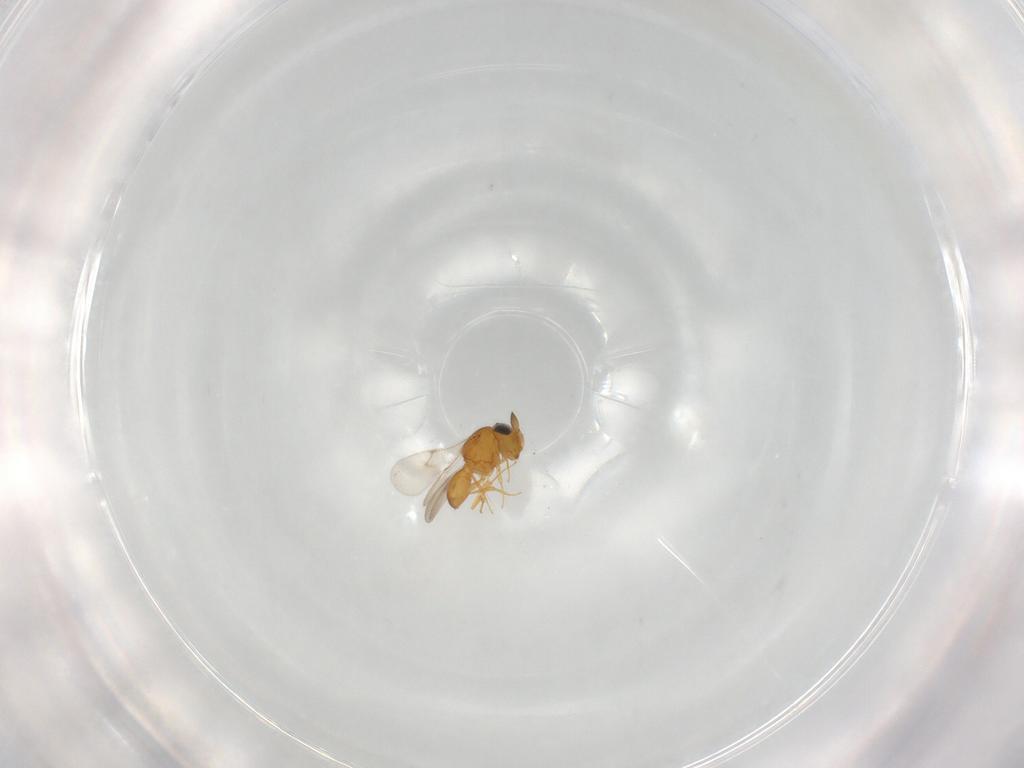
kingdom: Animalia
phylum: Arthropoda
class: Insecta
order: Hymenoptera
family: Scelionidae
